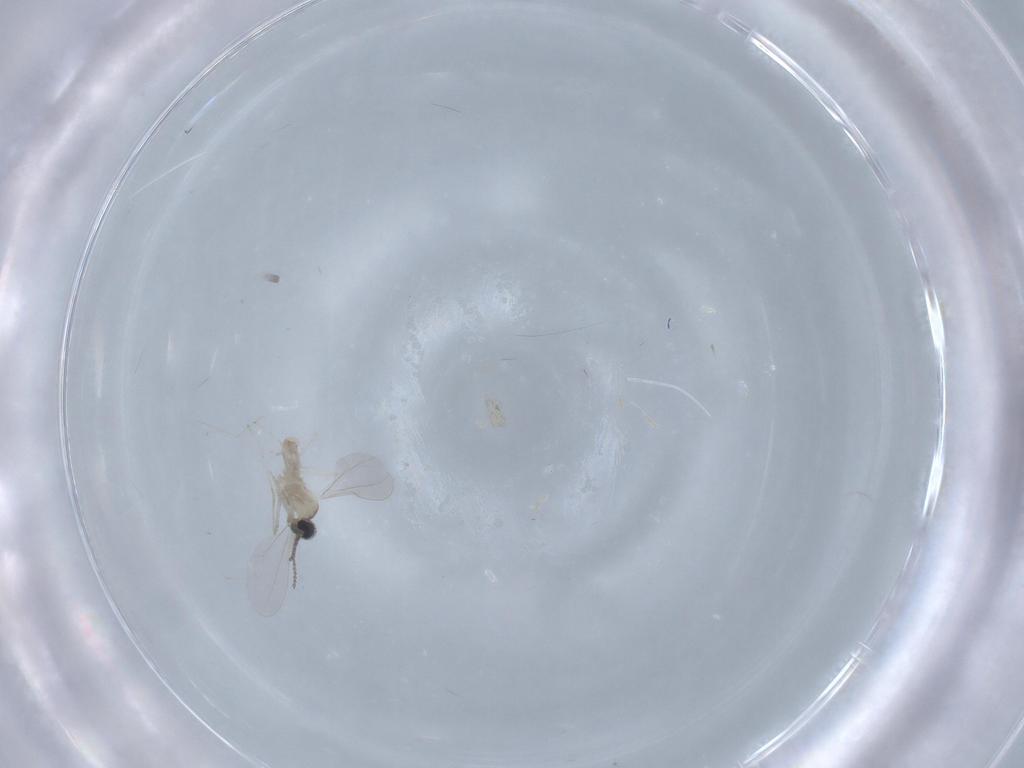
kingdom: Animalia
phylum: Arthropoda
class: Insecta
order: Diptera
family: Cecidomyiidae
